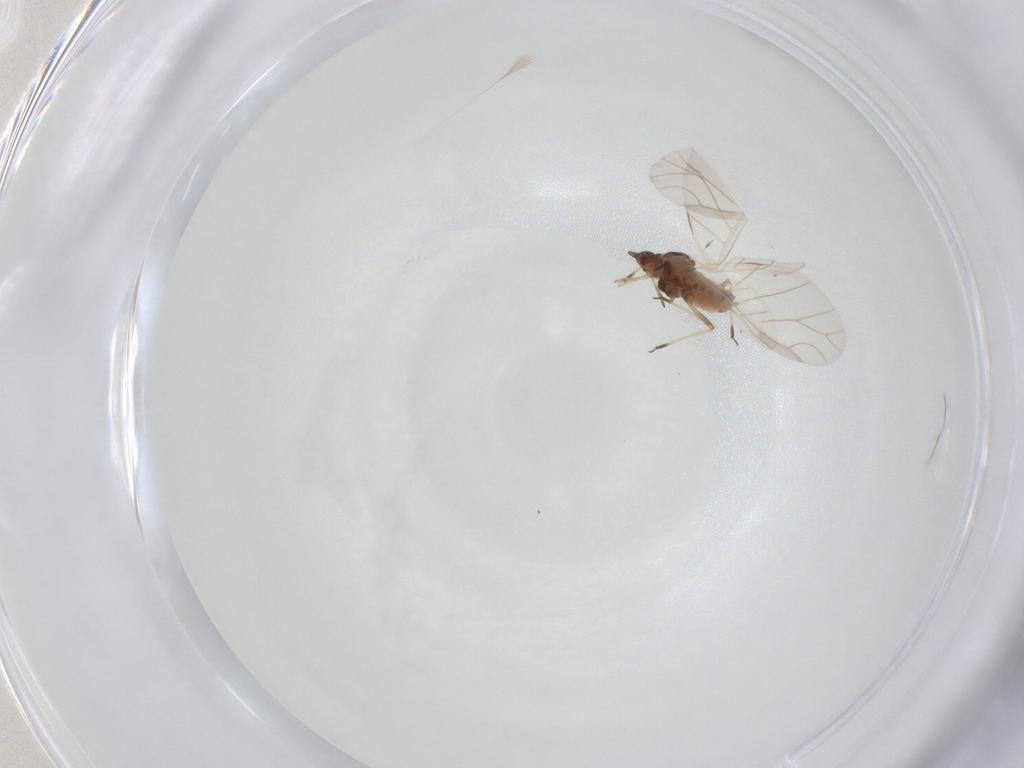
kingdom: Animalia
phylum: Arthropoda
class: Insecta
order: Hemiptera
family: Aphididae
